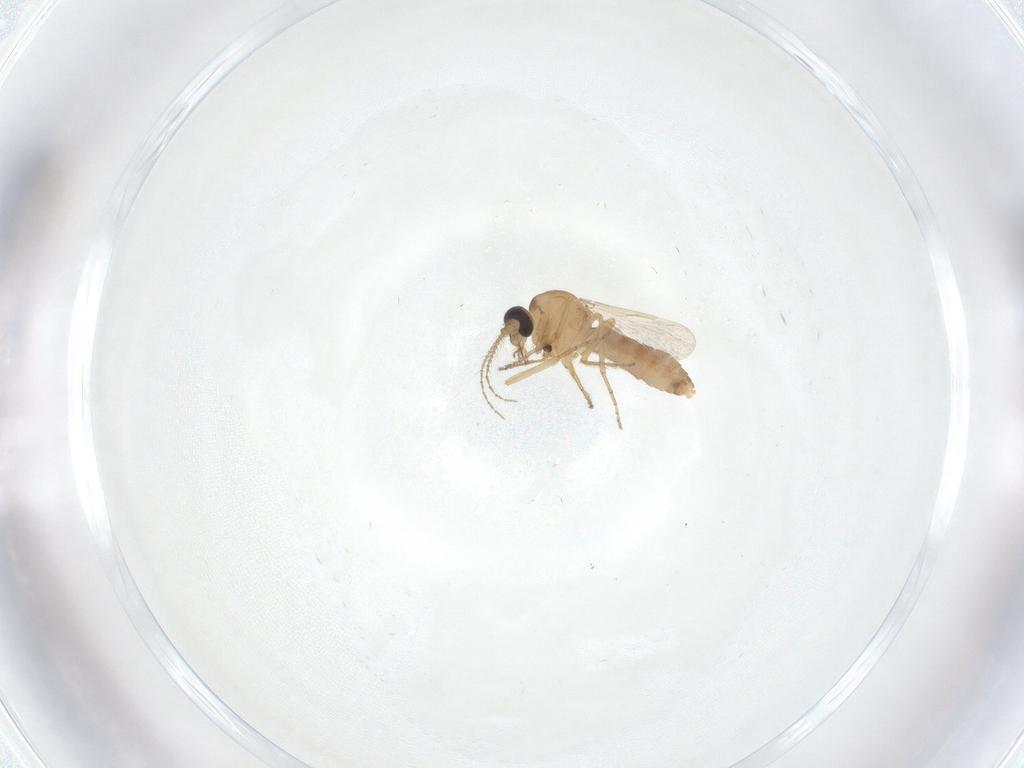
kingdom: Animalia
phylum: Arthropoda
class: Insecta
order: Diptera
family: Ceratopogonidae
